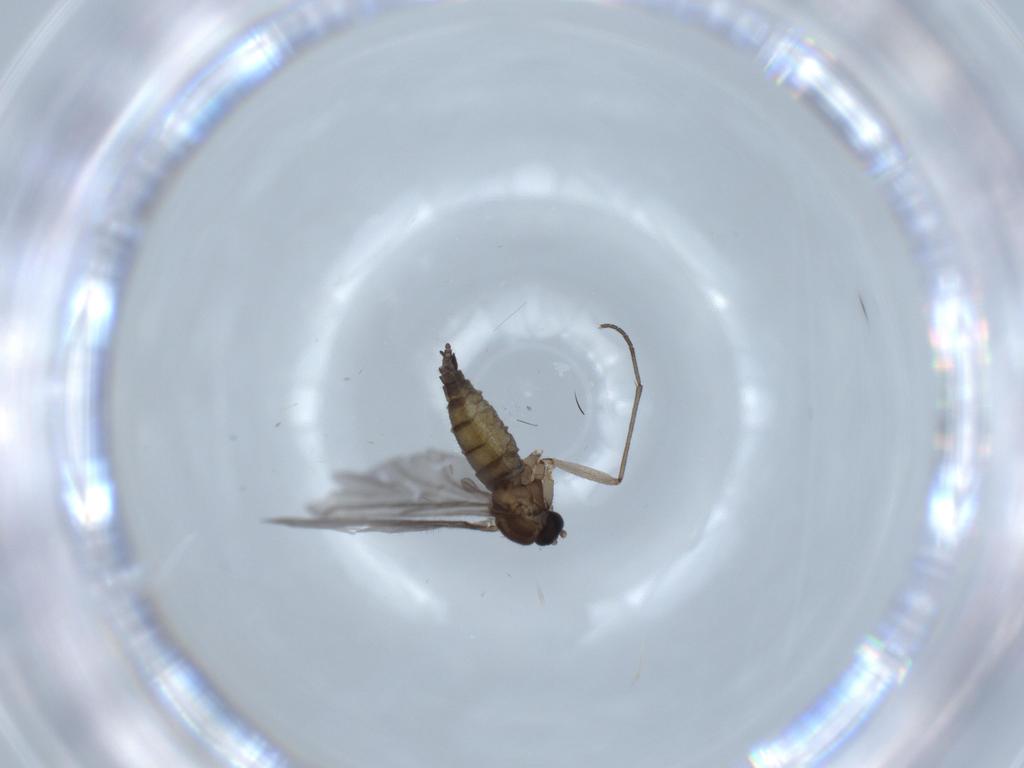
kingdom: Animalia
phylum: Arthropoda
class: Insecta
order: Diptera
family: Sciaridae
